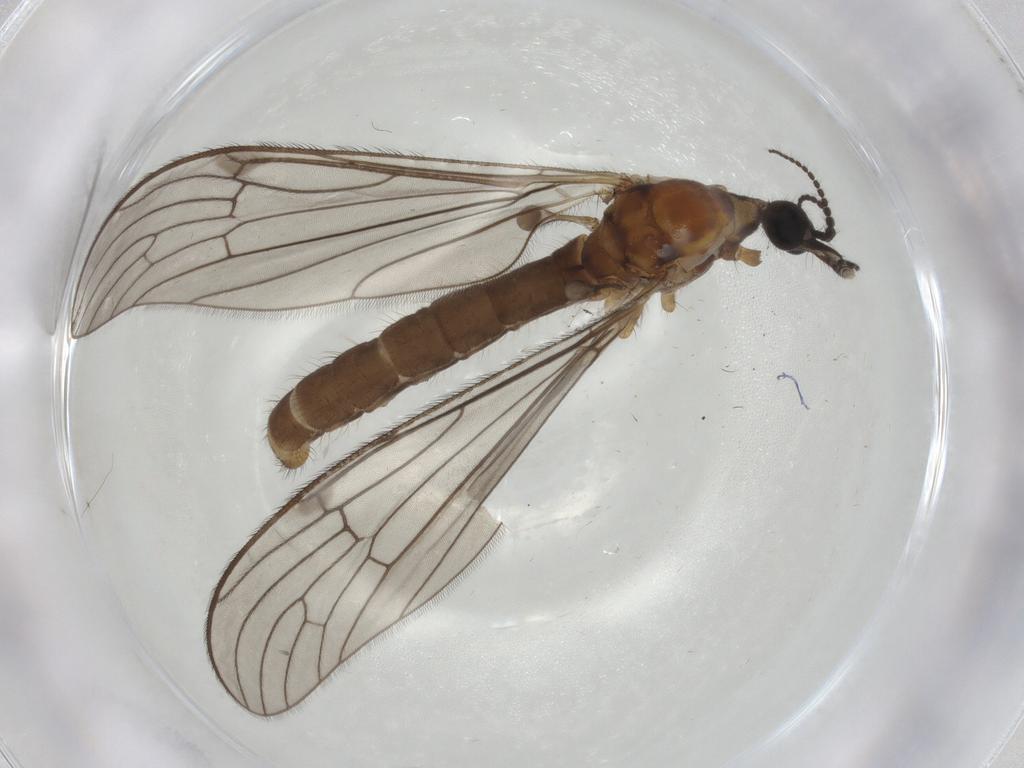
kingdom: Animalia
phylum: Arthropoda
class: Insecta
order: Diptera
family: Limoniidae
